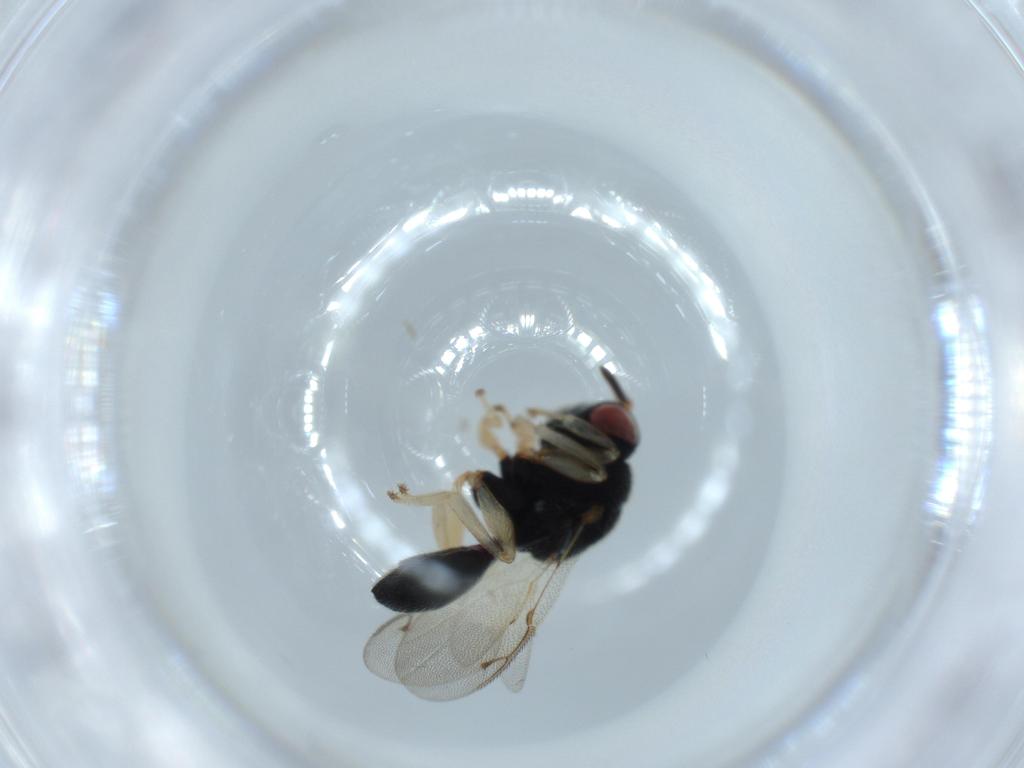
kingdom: Animalia
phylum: Arthropoda
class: Insecta
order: Hymenoptera
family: Eurytomidae
